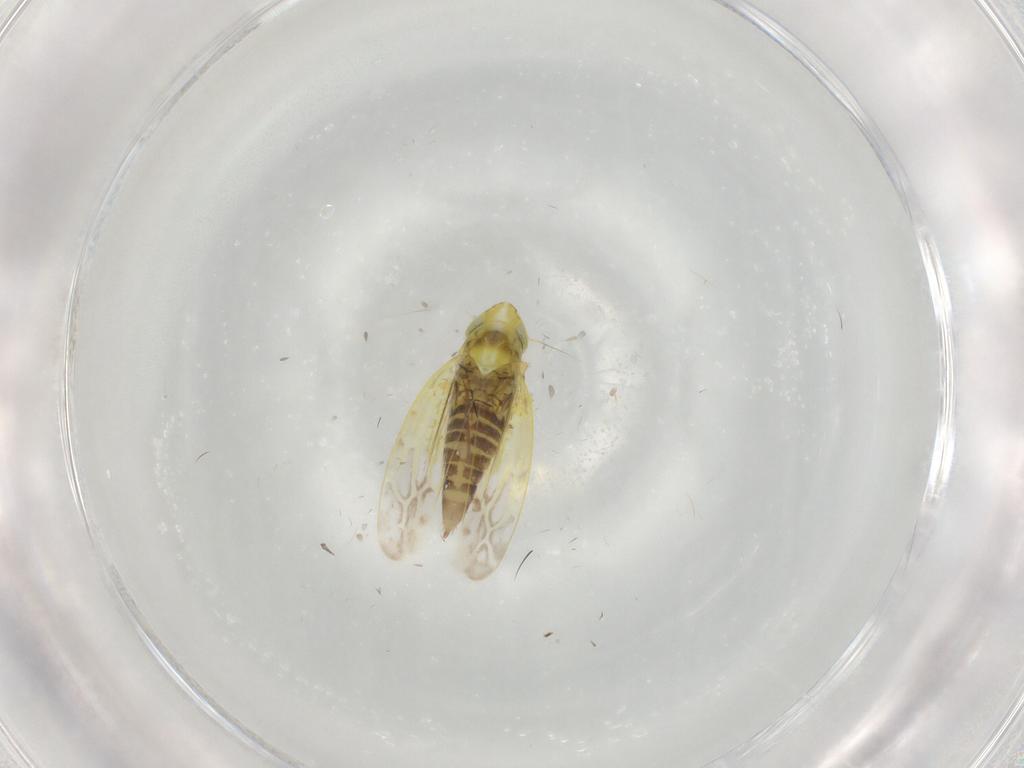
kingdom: Animalia
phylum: Arthropoda
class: Insecta
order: Hemiptera
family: Cicadellidae
